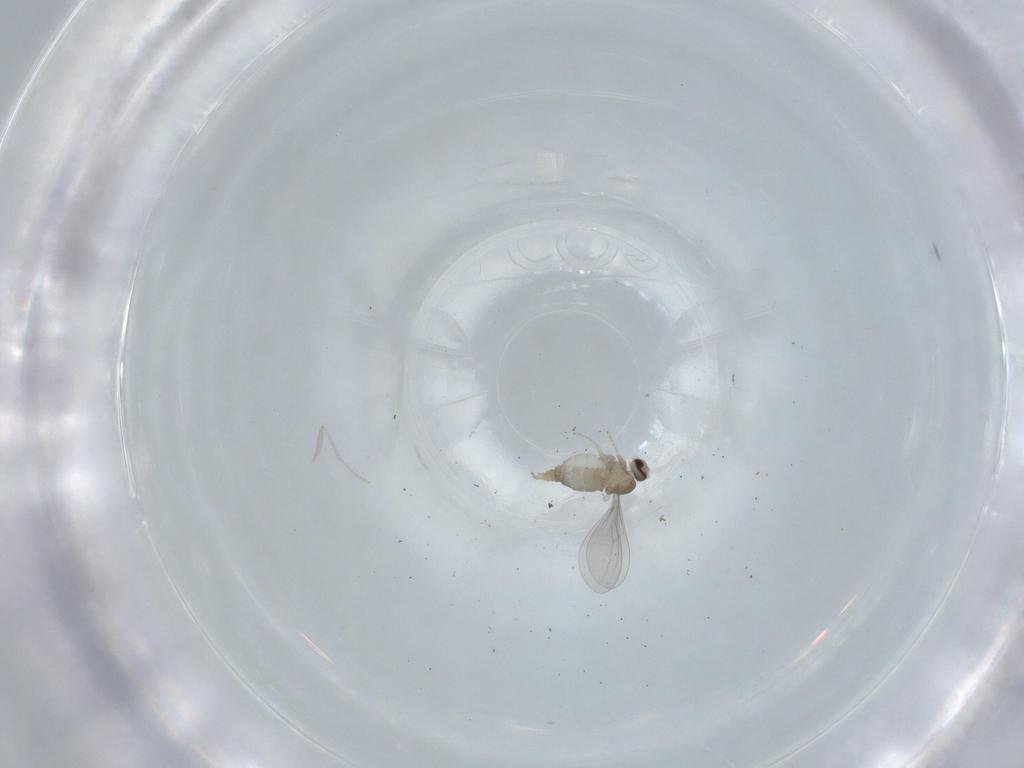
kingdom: Animalia
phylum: Arthropoda
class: Insecta
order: Diptera
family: Cecidomyiidae
